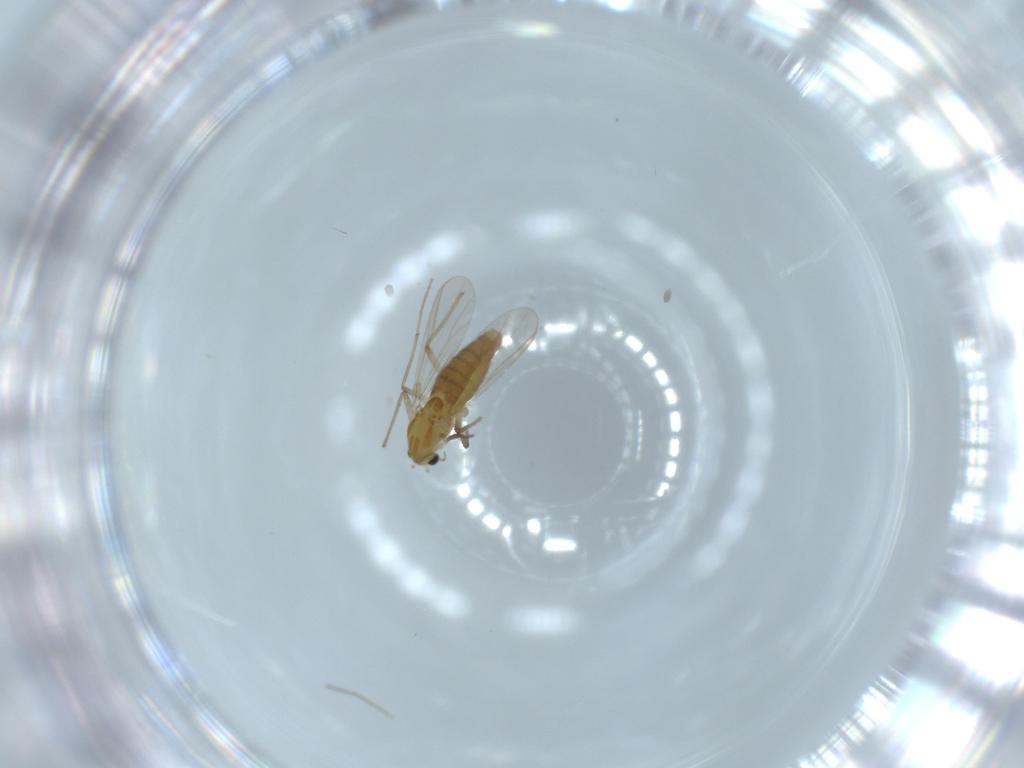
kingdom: Animalia
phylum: Arthropoda
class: Insecta
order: Diptera
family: Chironomidae
